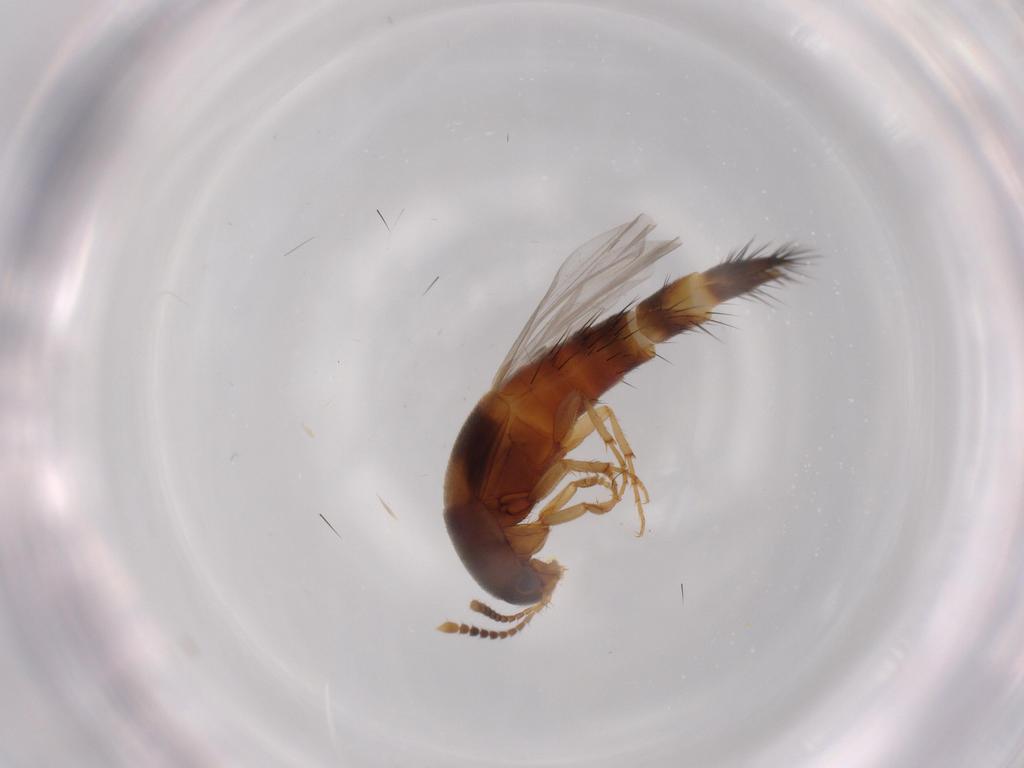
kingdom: Animalia
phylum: Arthropoda
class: Insecta
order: Coleoptera
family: Staphylinidae
